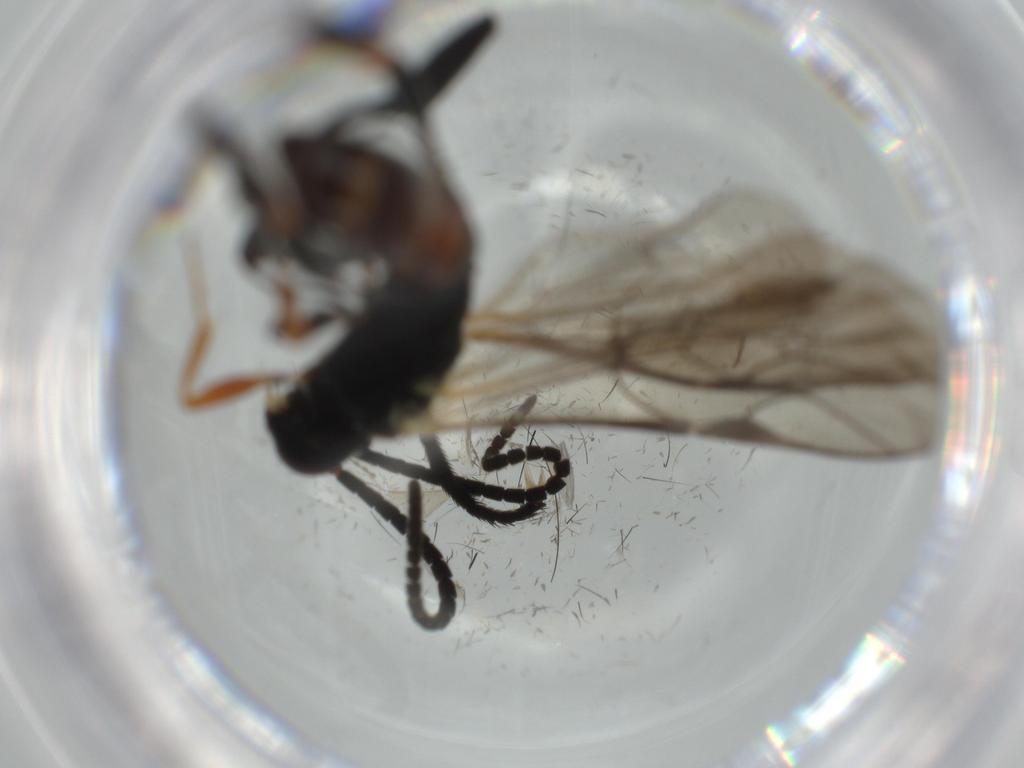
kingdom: Animalia
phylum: Arthropoda
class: Insecta
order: Hymenoptera
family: Ichneumonidae
